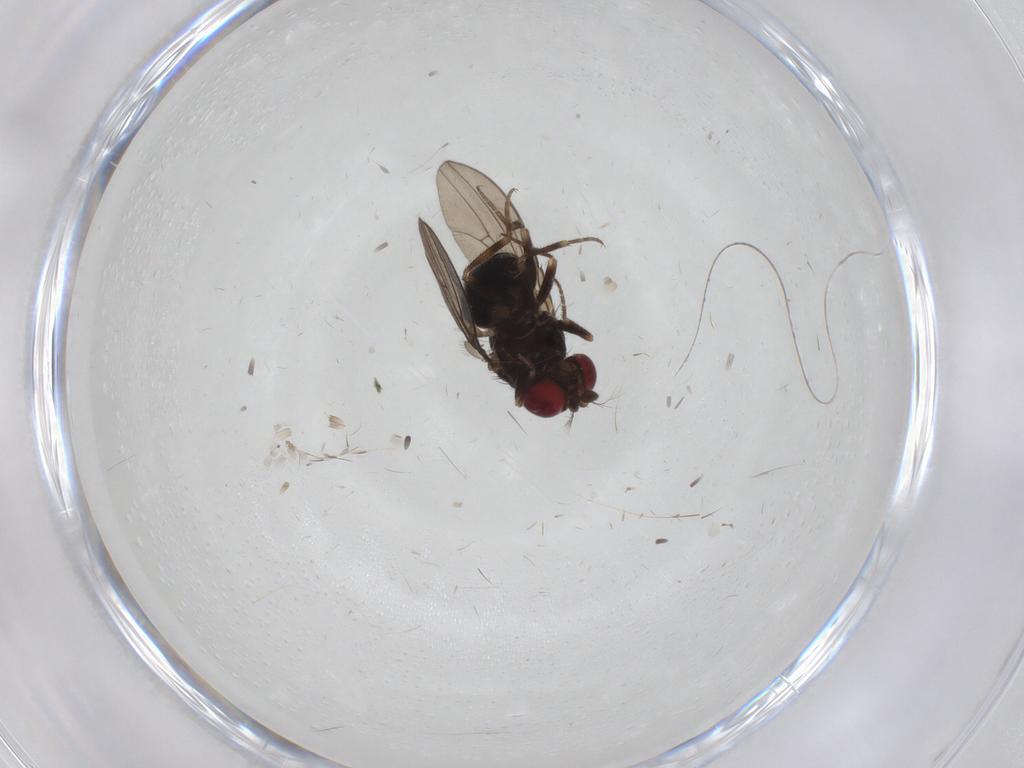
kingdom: Animalia
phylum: Arthropoda
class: Insecta
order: Diptera
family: Ephydridae
